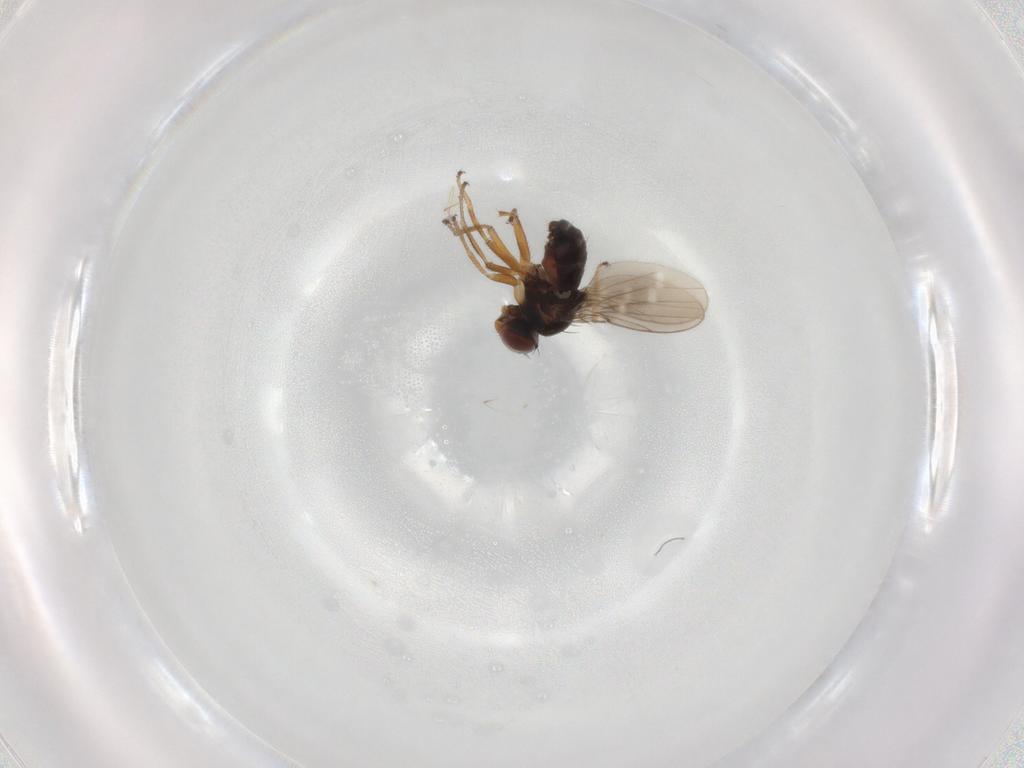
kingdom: Animalia
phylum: Arthropoda
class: Insecta
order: Diptera
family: Ephydridae
